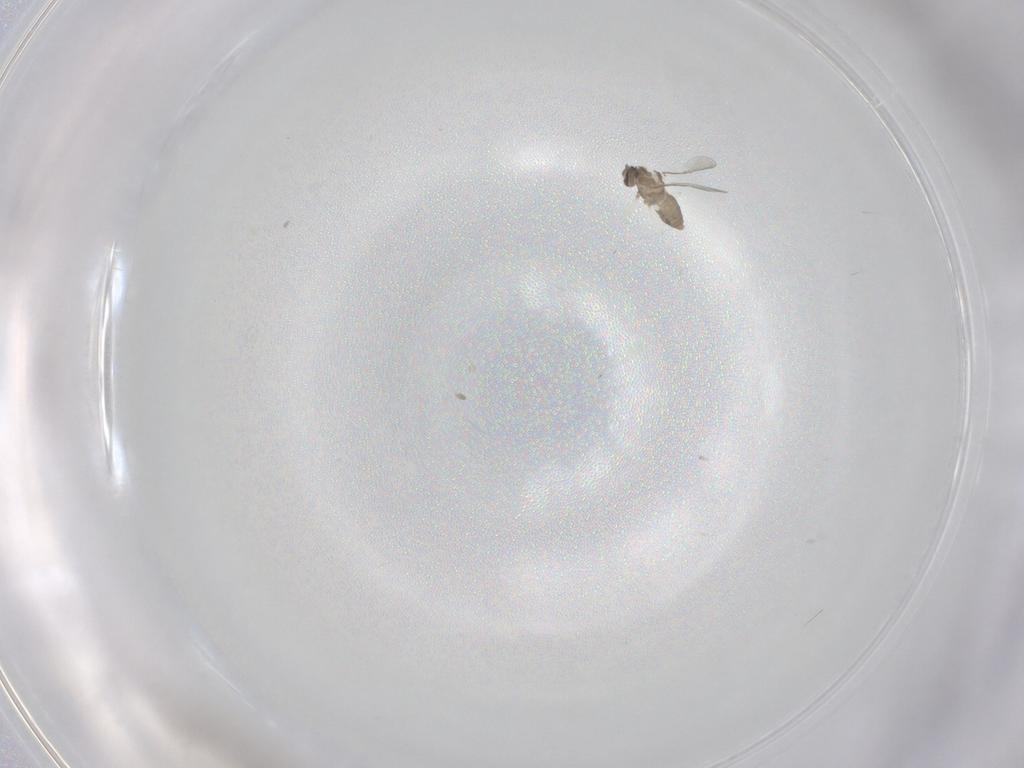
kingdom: Animalia
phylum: Arthropoda
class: Insecta
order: Diptera
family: Cecidomyiidae
